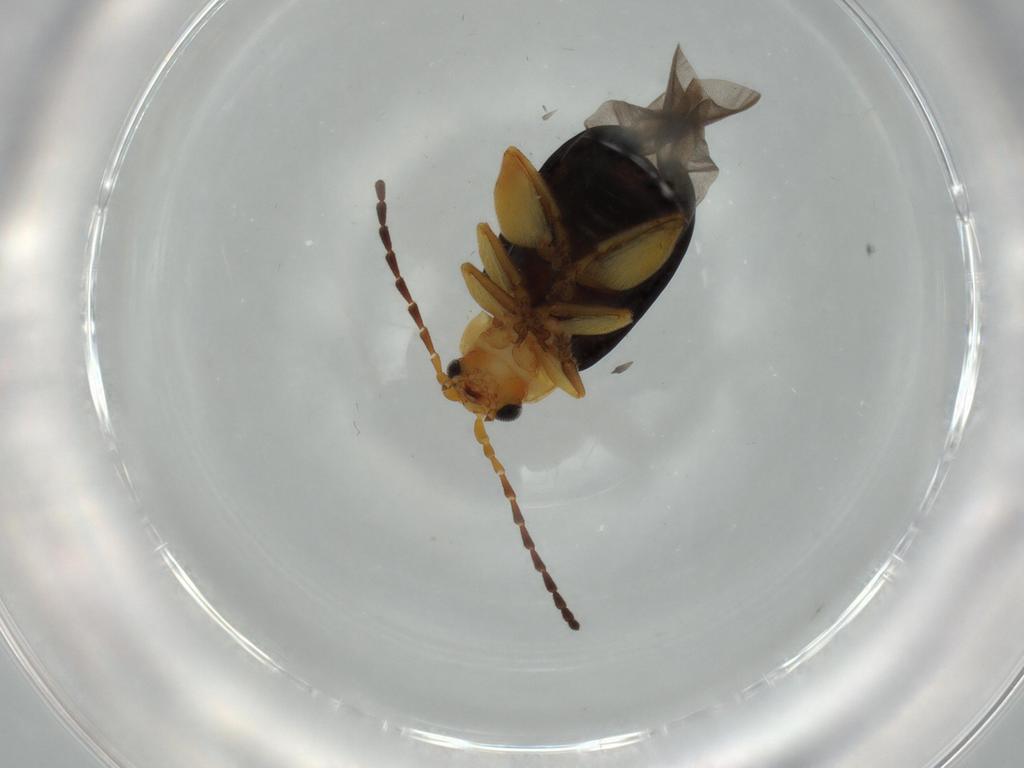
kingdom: Animalia
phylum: Arthropoda
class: Insecta
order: Coleoptera
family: Chrysomelidae
